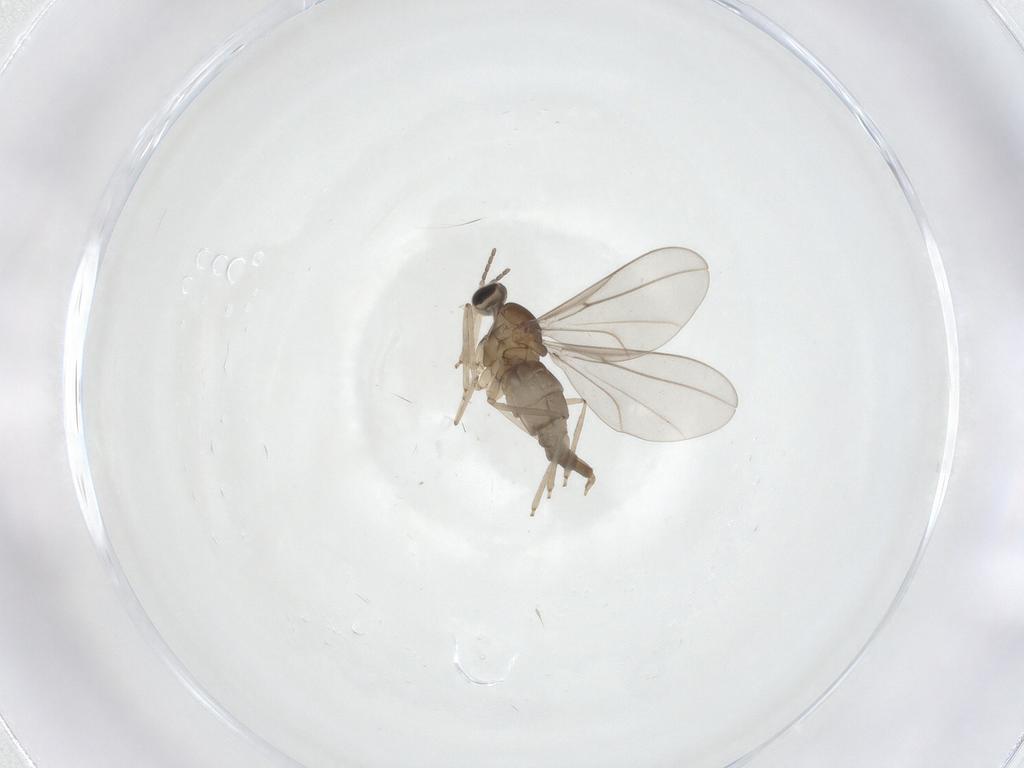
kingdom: Animalia
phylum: Arthropoda
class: Insecta
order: Diptera
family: Cecidomyiidae
